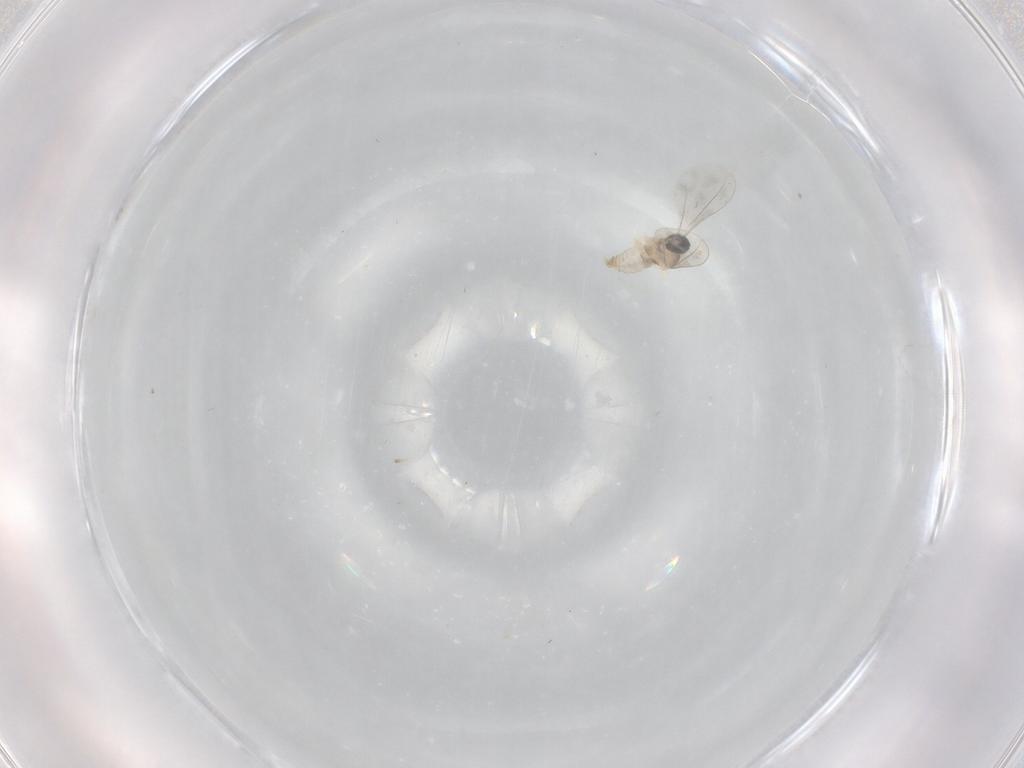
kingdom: Animalia
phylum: Arthropoda
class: Insecta
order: Diptera
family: Cecidomyiidae
